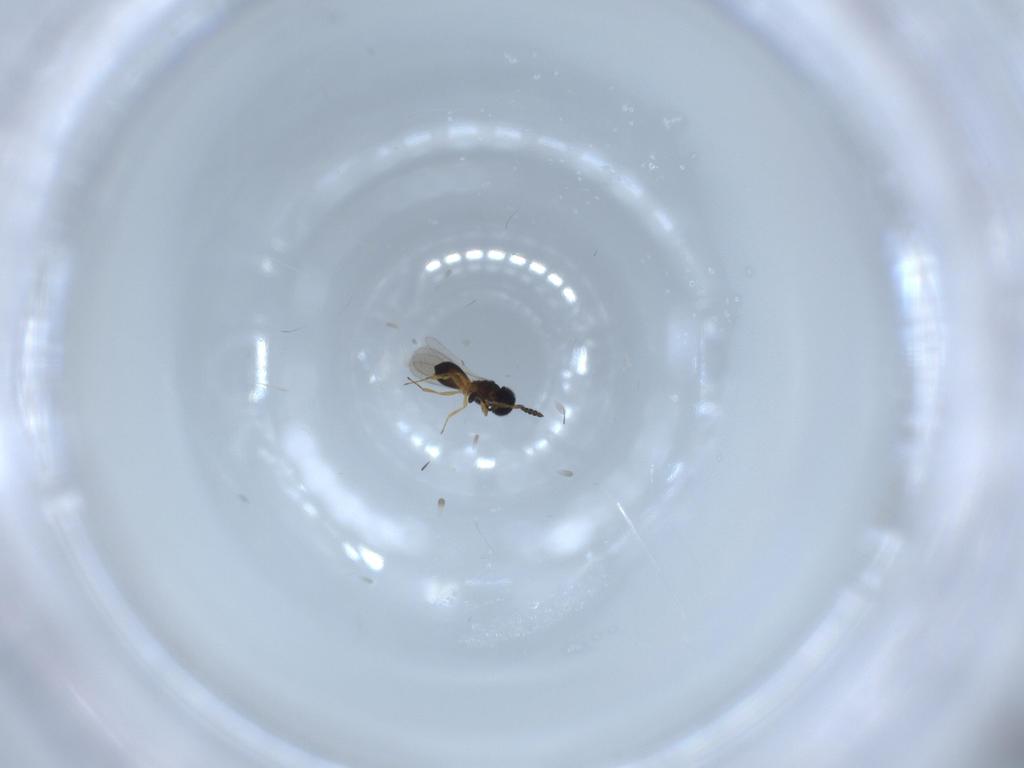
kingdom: Animalia
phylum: Arthropoda
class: Insecta
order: Hymenoptera
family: Scelionidae
